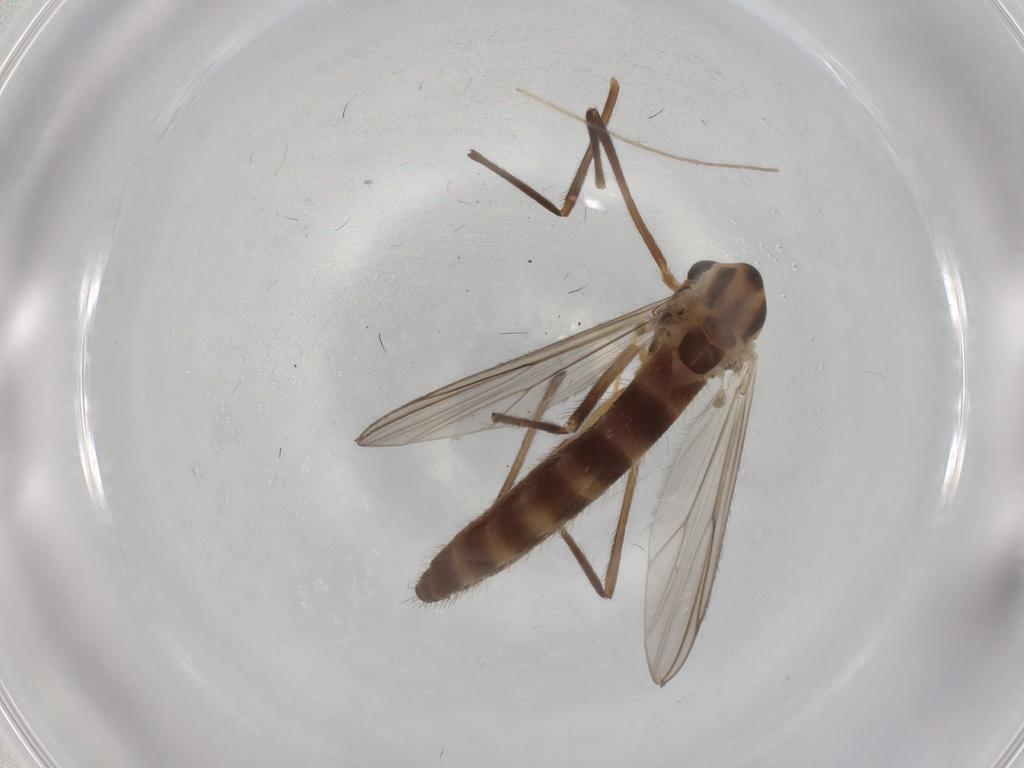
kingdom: Animalia
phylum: Arthropoda
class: Insecta
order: Diptera
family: Chironomidae
